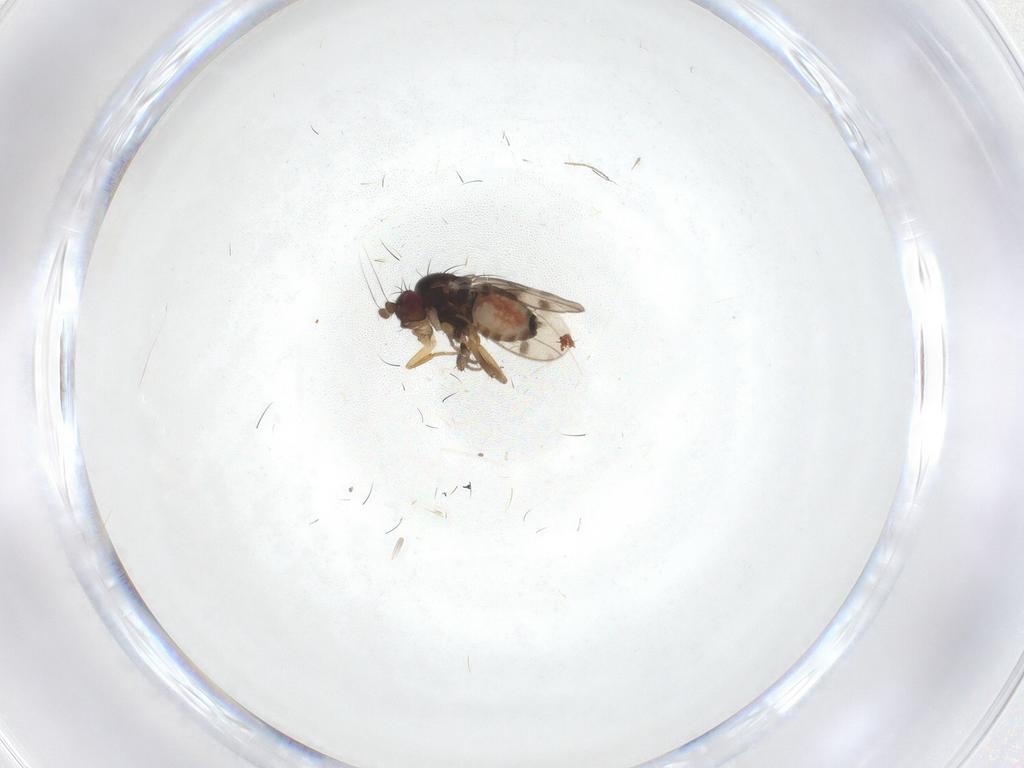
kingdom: Animalia
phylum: Arthropoda
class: Insecta
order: Diptera
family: Sphaeroceridae
